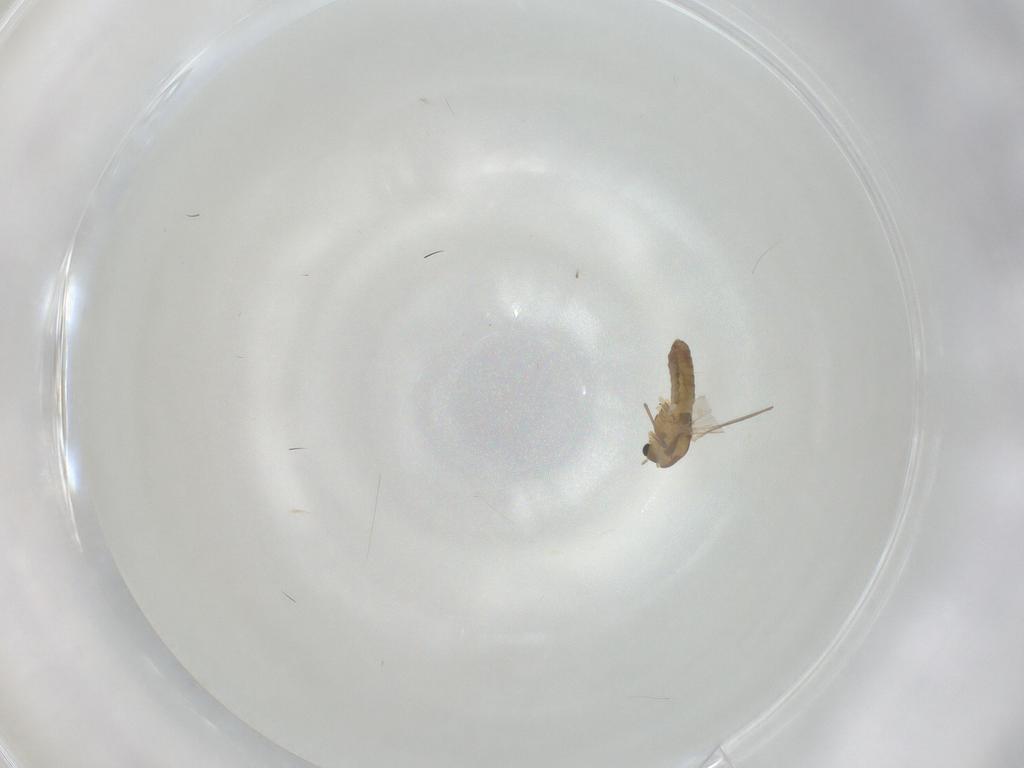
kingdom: Animalia
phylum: Arthropoda
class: Insecta
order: Diptera
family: Chironomidae
